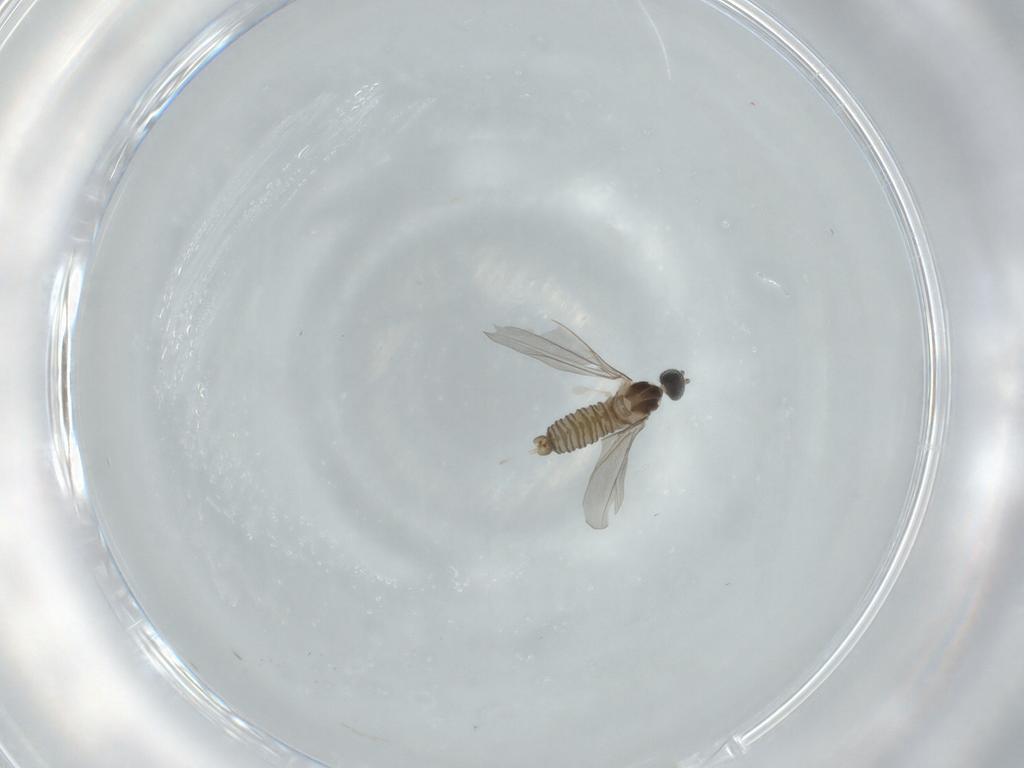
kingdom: Animalia
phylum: Arthropoda
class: Insecta
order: Diptera
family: Cecidomyiidae
